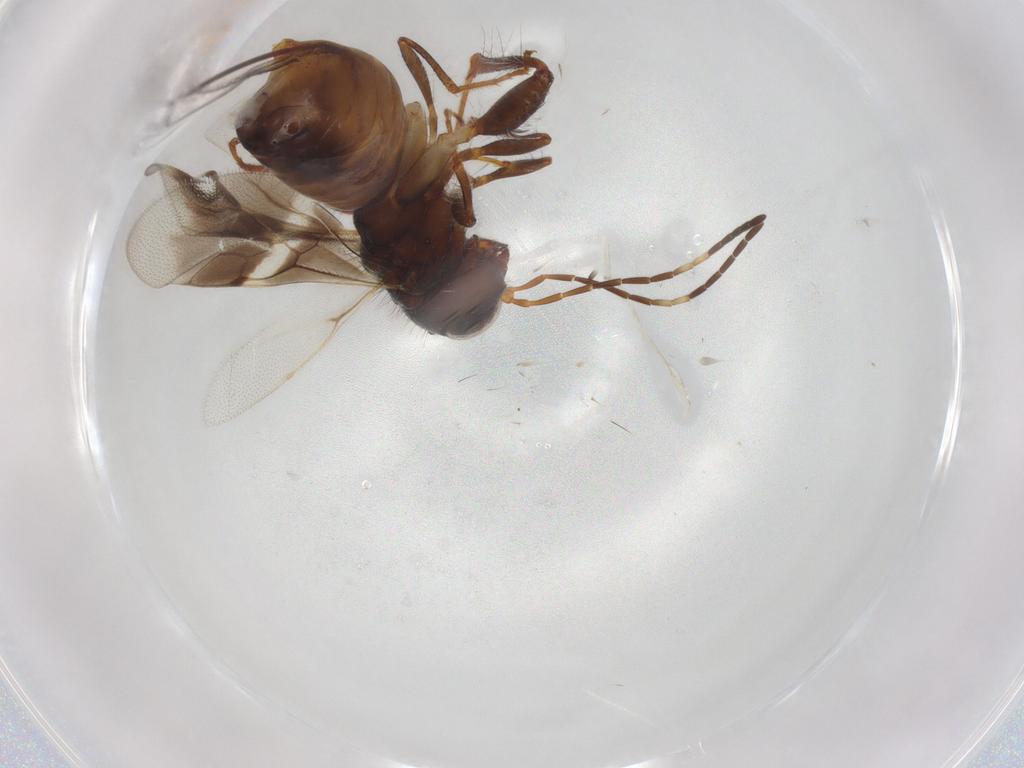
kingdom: Animalia
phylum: Arthropoda
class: Insecta
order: Hymenoptera
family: Megalyridae
